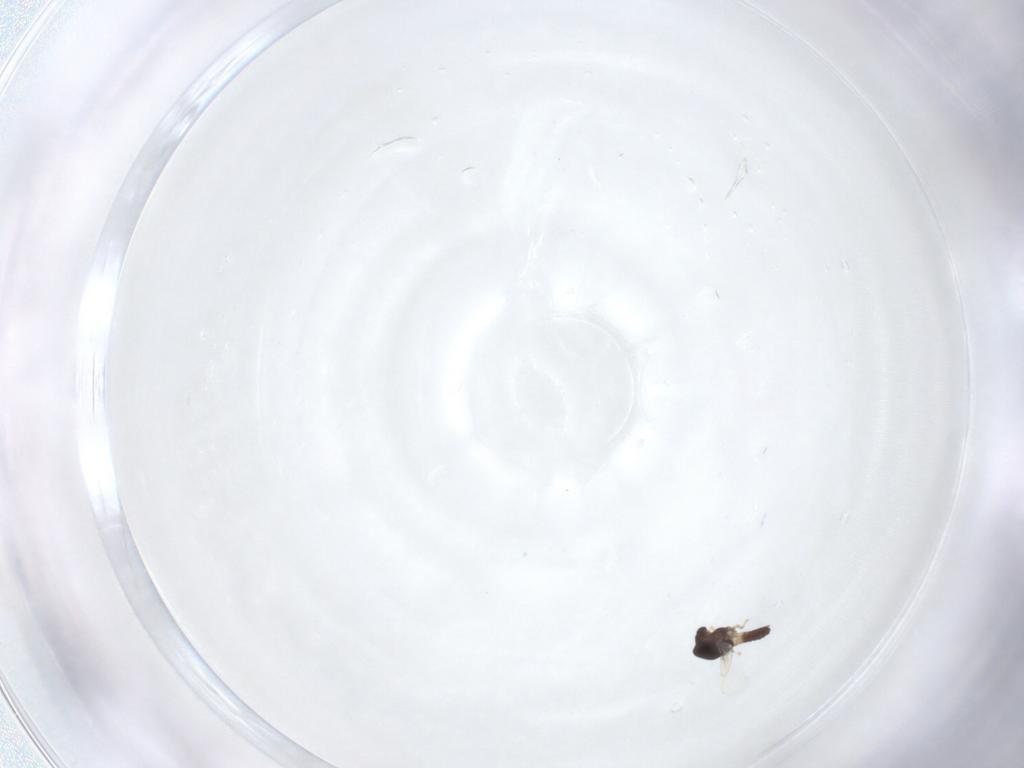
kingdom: Animalia
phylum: Arthropoda
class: Insecta
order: Diptera
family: Chironomidae
